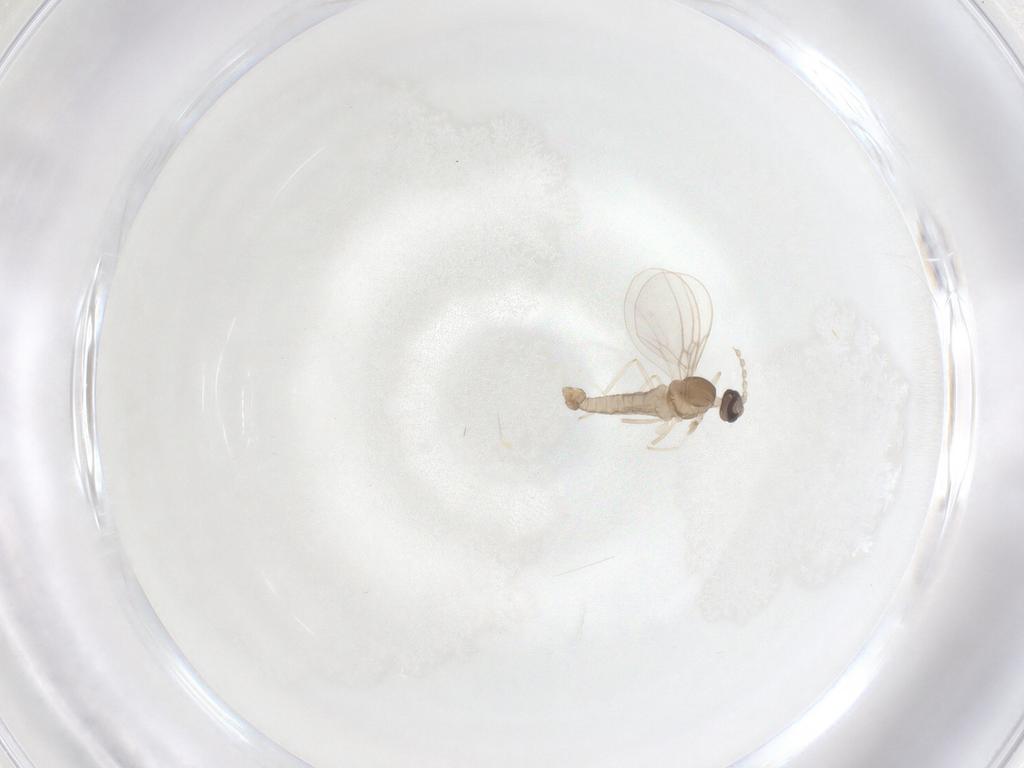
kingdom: Animalia
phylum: Arthropoda
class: Insecta
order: Diptera
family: Cecidomyiidae
